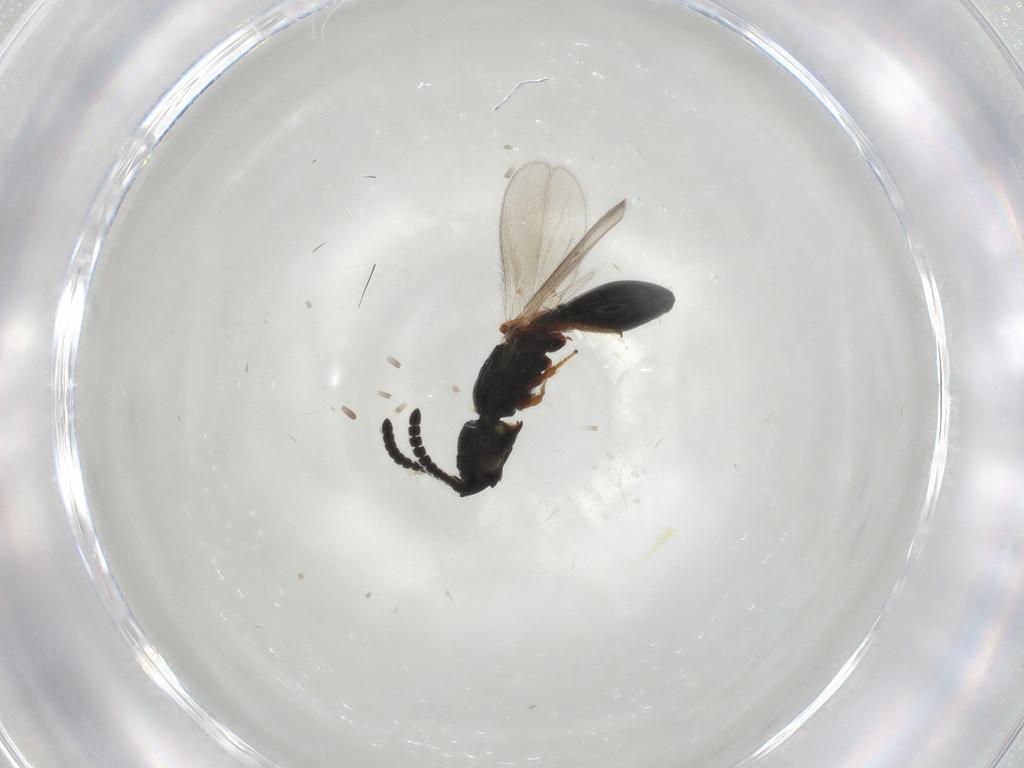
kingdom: Animalia
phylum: Arthropoda
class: Insecta
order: Hymenoptera
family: Diapriidae
